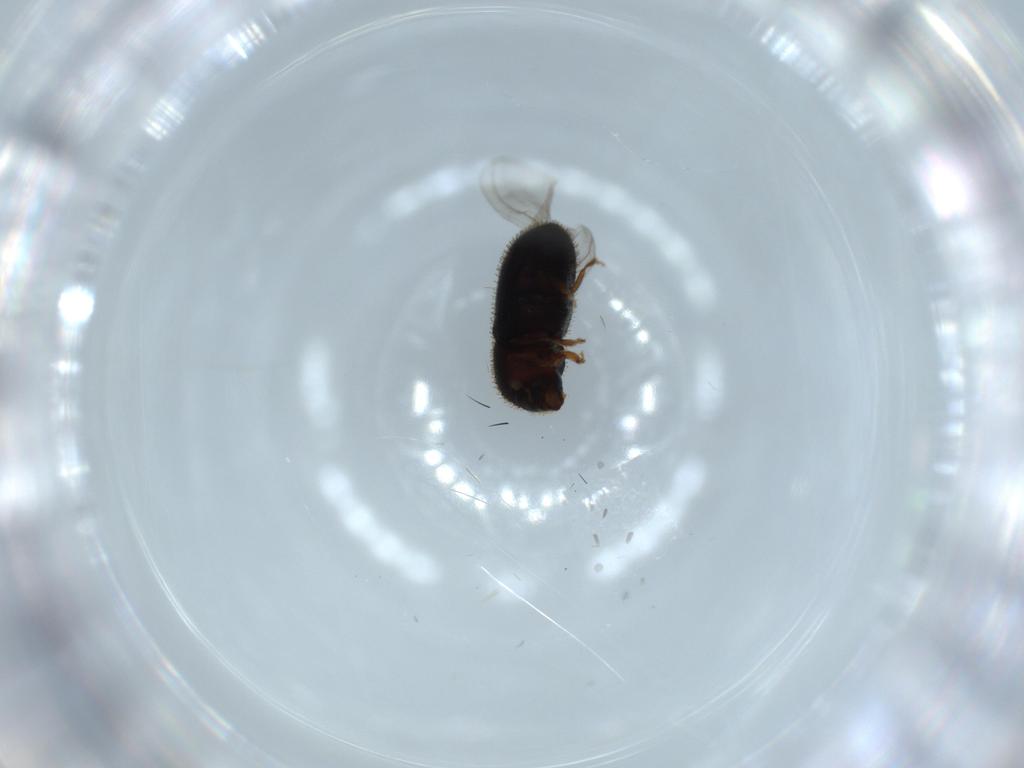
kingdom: Animalia
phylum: Arthropoda
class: Insecta
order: Coleoptera
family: Curculionidae
